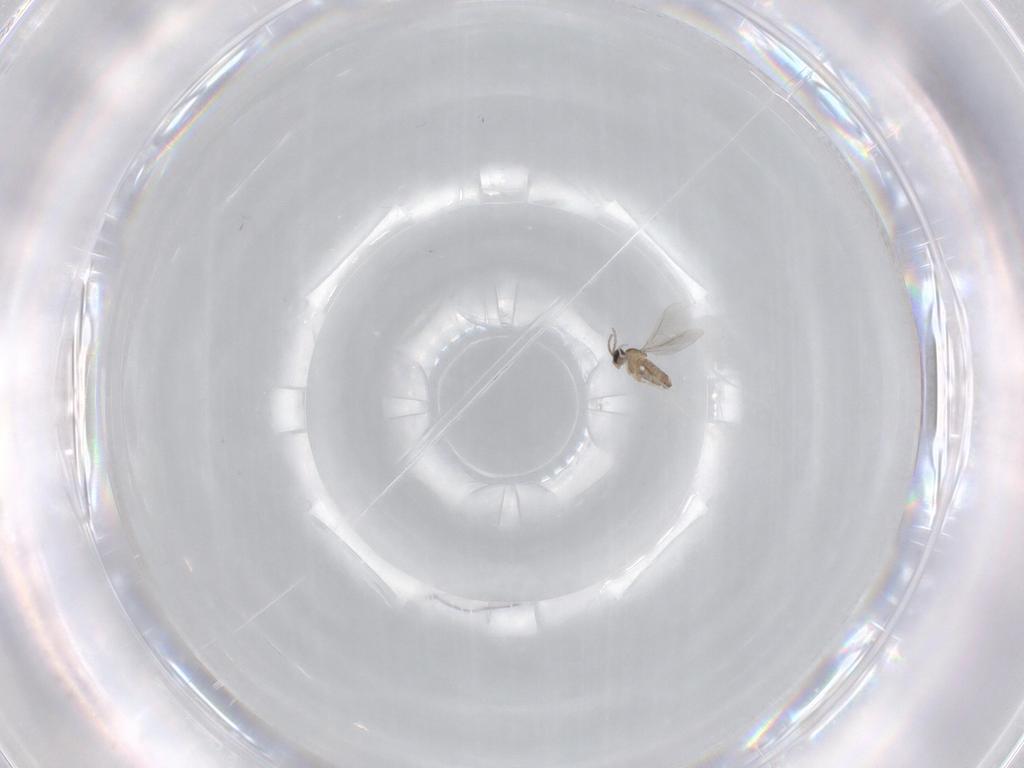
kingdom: Animalia
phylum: Arthropoda
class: Insecta
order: Diptera
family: Cecidomyiidae
